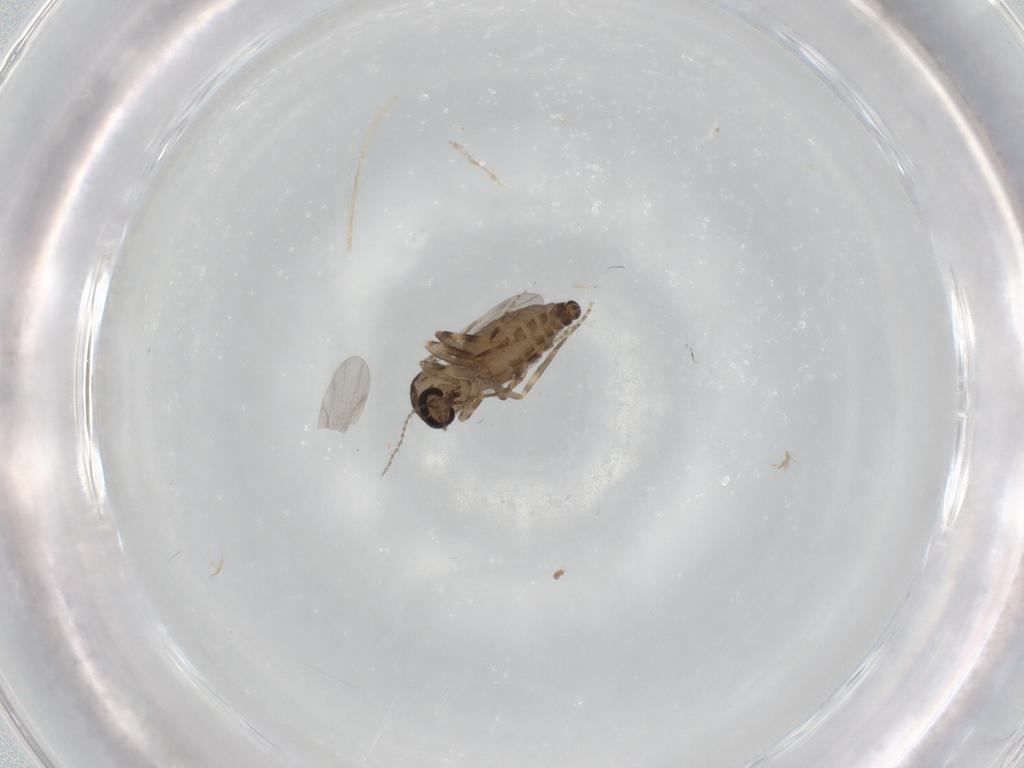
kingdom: Animalia
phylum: Arthropoda
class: Insecta
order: Diptera
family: Ceratopogonidae
